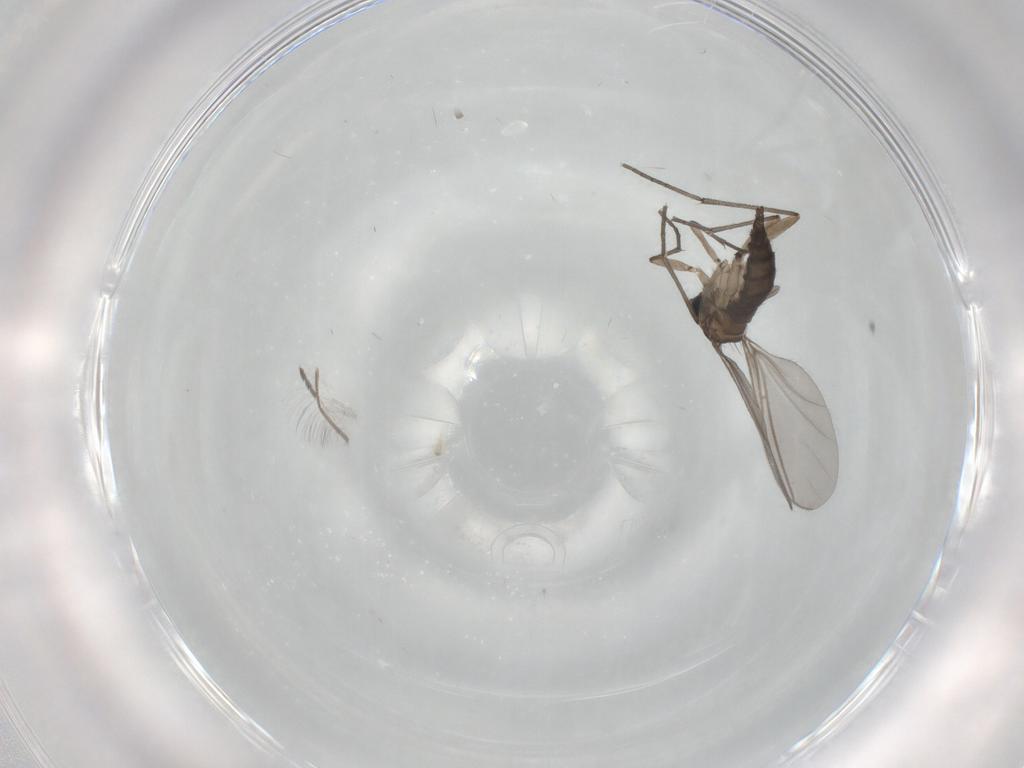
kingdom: Animalia
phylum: Arthropoda
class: Insecta
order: Diptera
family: Sciaridae
